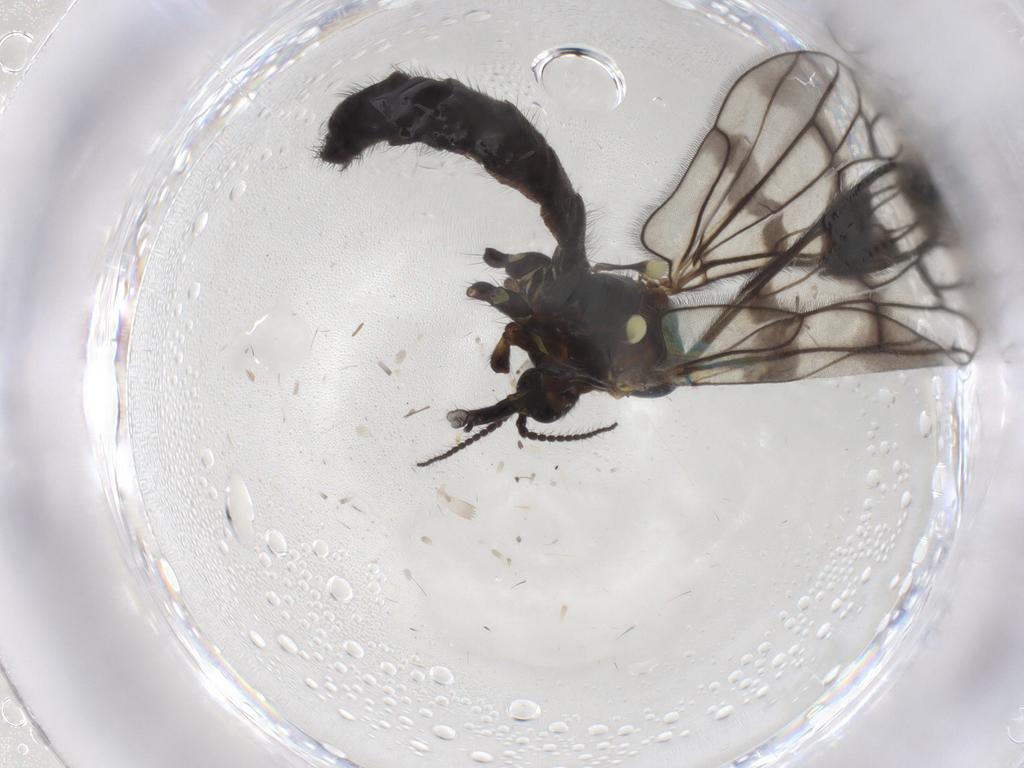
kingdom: Animalia
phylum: Arthropoda
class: Insecta
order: Diptera
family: Limoniidae
